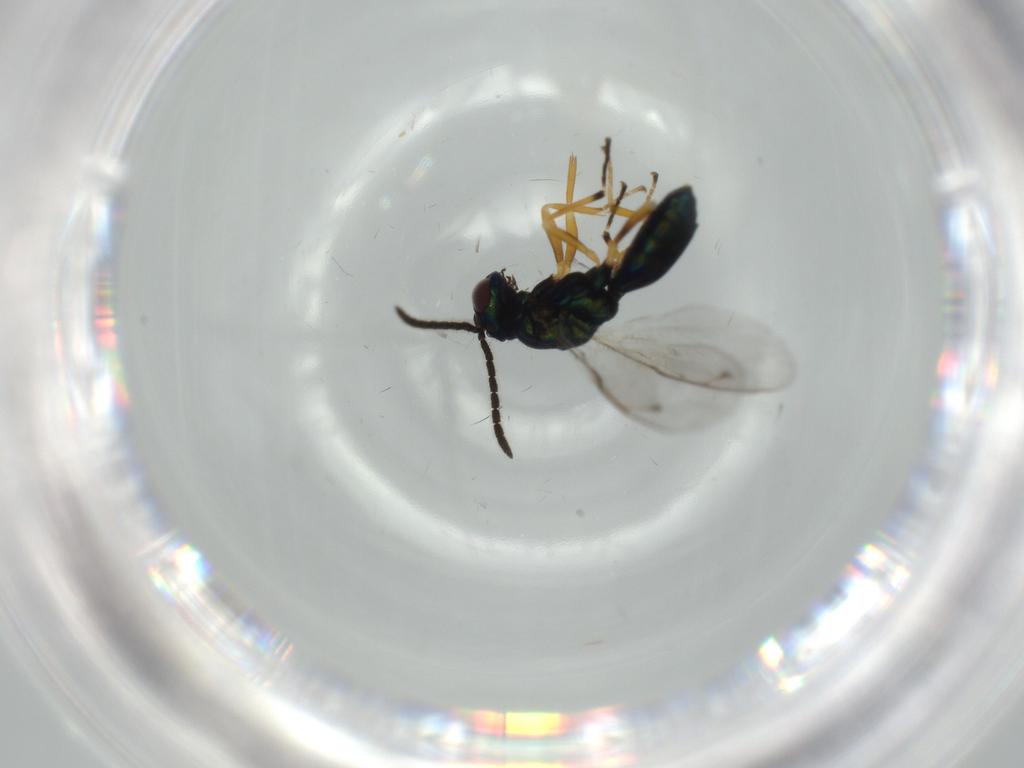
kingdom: Animalia
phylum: Arthropoda
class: Insecta
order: Hymenoptera
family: Pteromalidae
